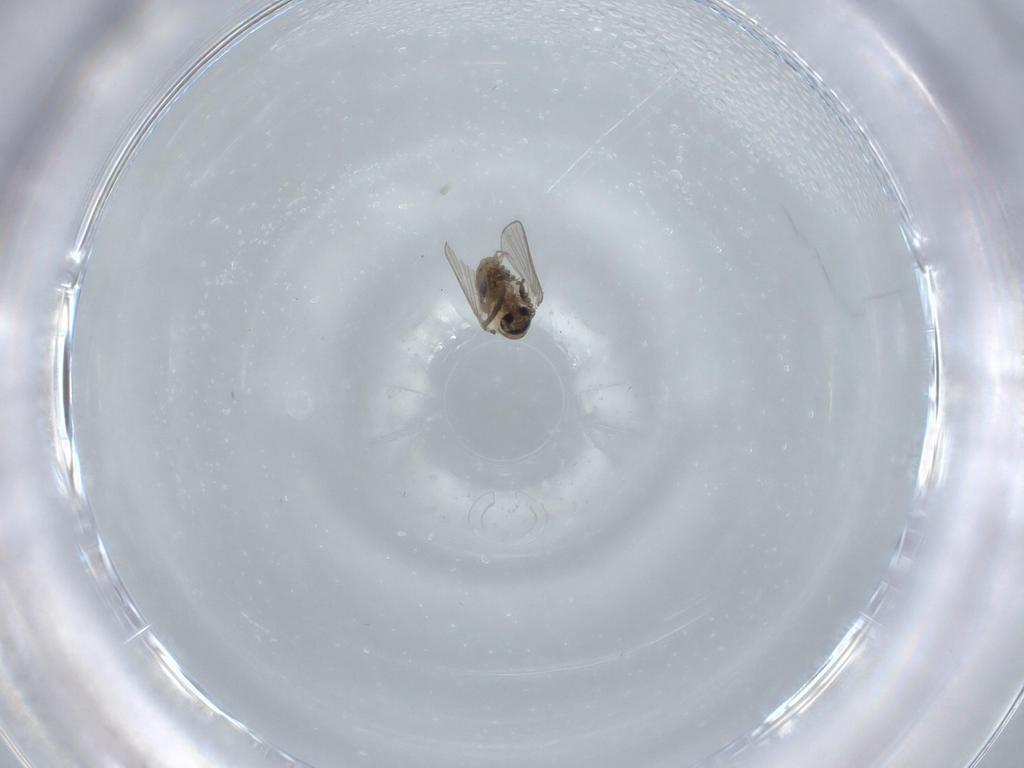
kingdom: Animalia
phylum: Arthropoda
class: Insecta
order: Diptera
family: Psychodidae
